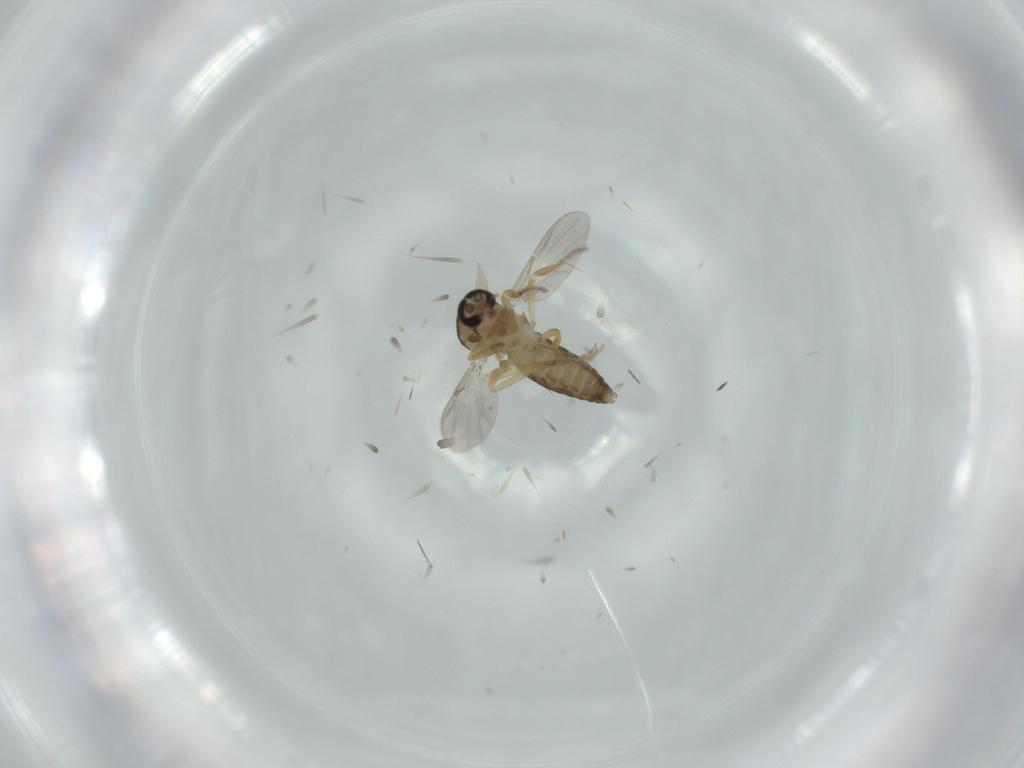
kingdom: Animalia
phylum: Arthropoda
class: Insecta
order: Diptera
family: Ceratopogonidae
